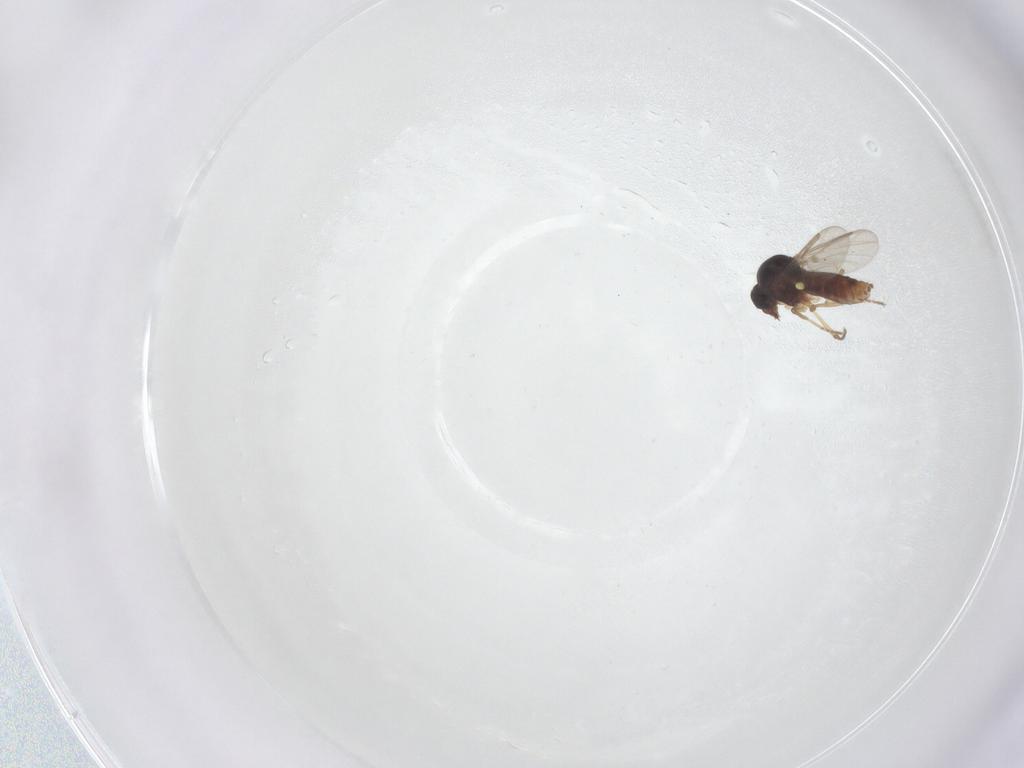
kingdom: Animalia
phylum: Arthropoda
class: Insecta
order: Diptera
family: Ceratopogonidae
